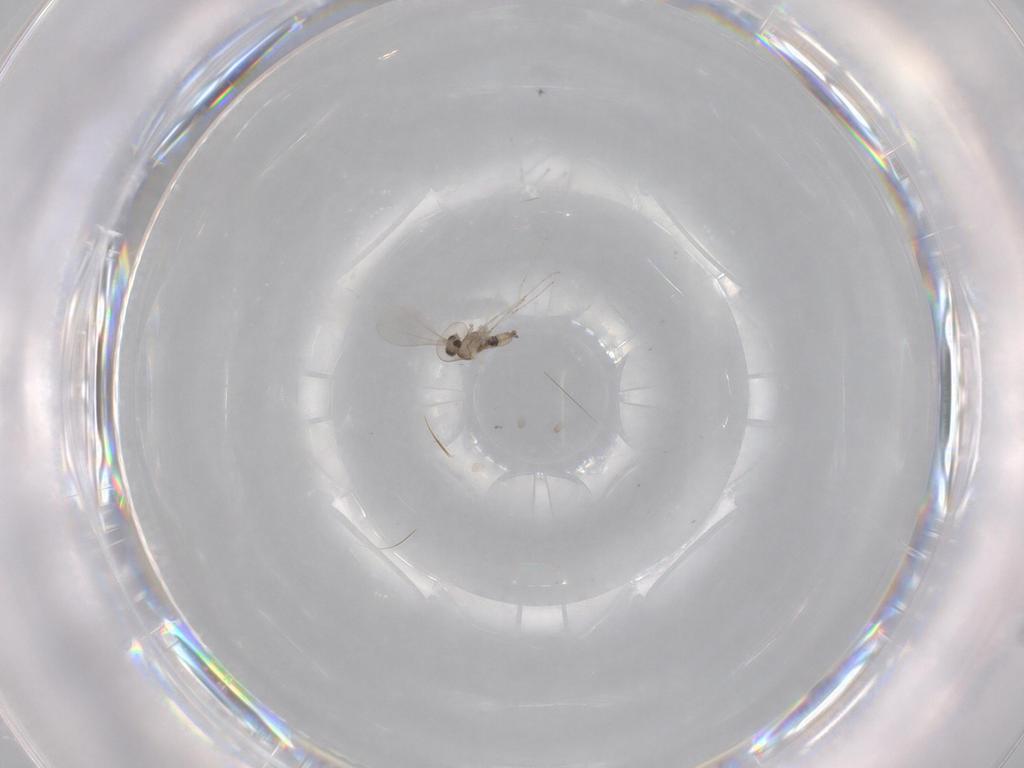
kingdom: Animalia
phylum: Arthropoda
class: Insecta
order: Diptera
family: Cecidomyiidae
